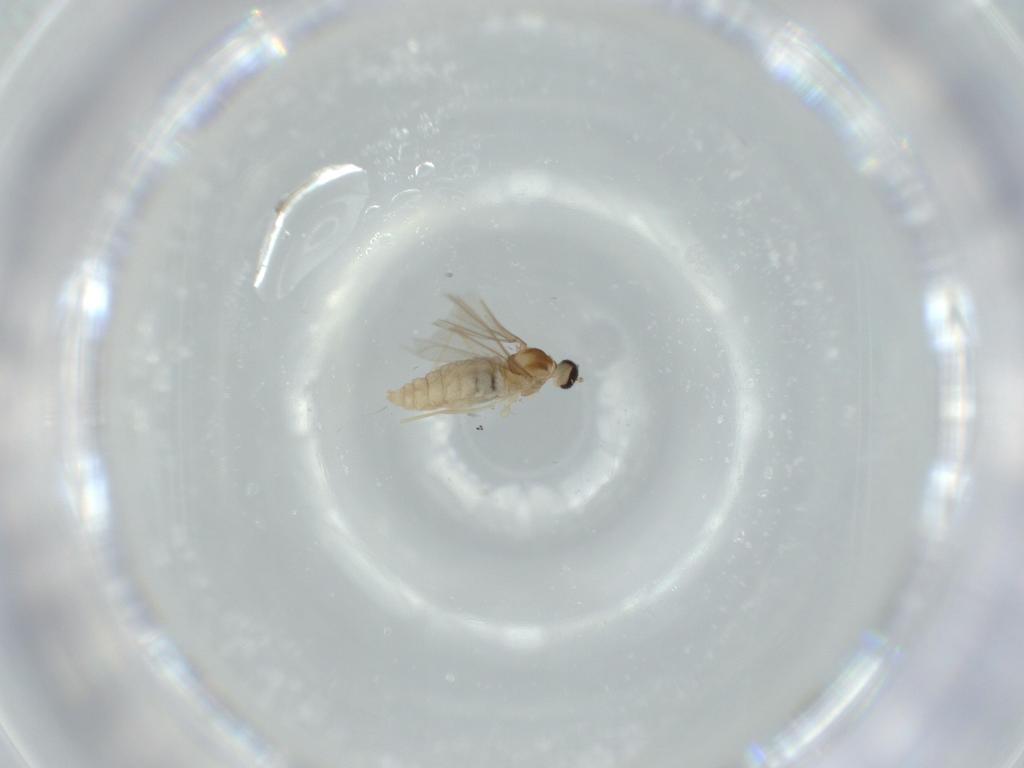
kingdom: Animalia
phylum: Arthropoda
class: Insecta
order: Diptera
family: Cecidomyiidae
